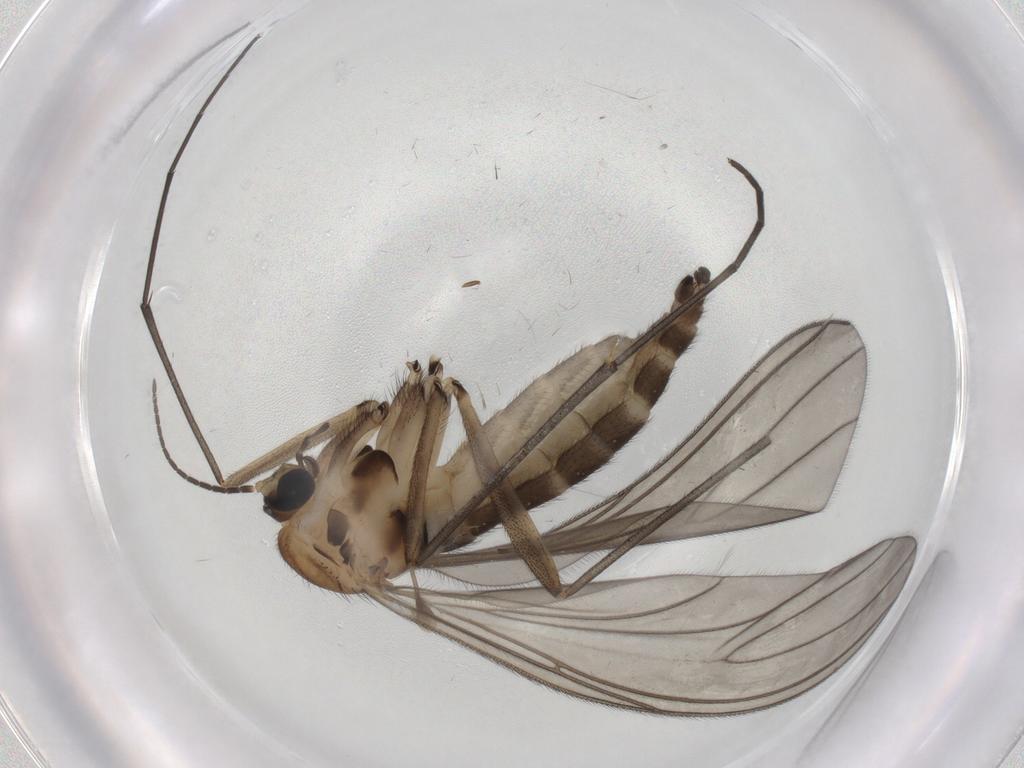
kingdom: Animalia
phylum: Arthropoda
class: Insecta
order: Diptera
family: Sciaridae
